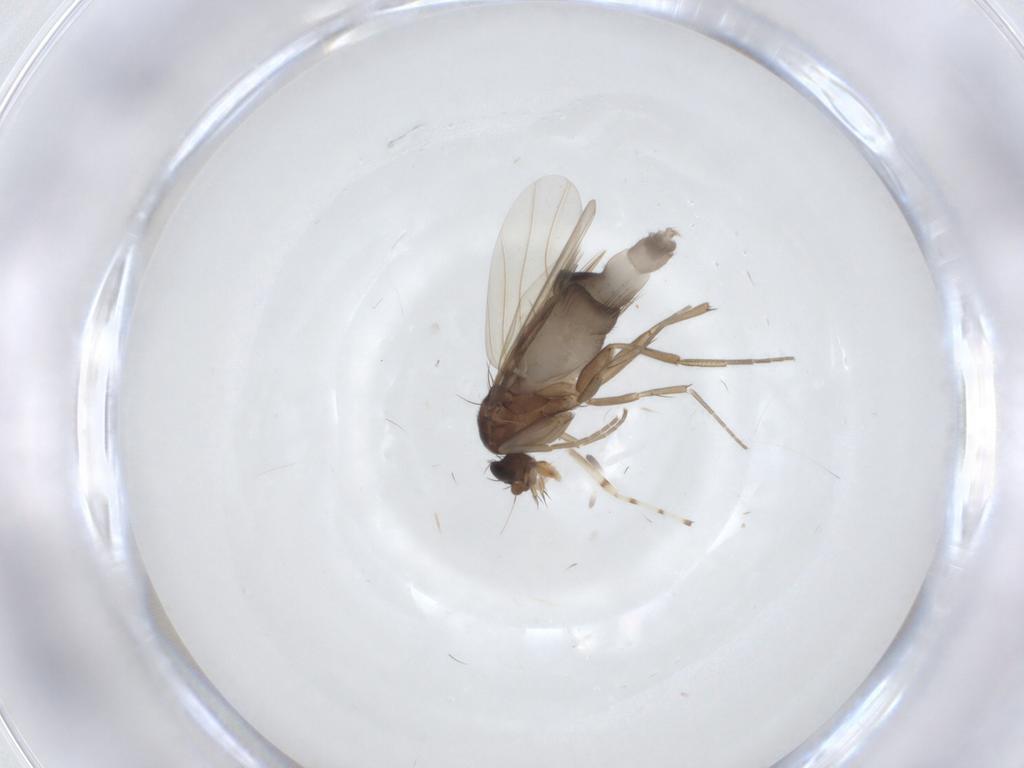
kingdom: Animalia
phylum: Arthropoda
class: Insecta
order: Diptera
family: Phoridae
